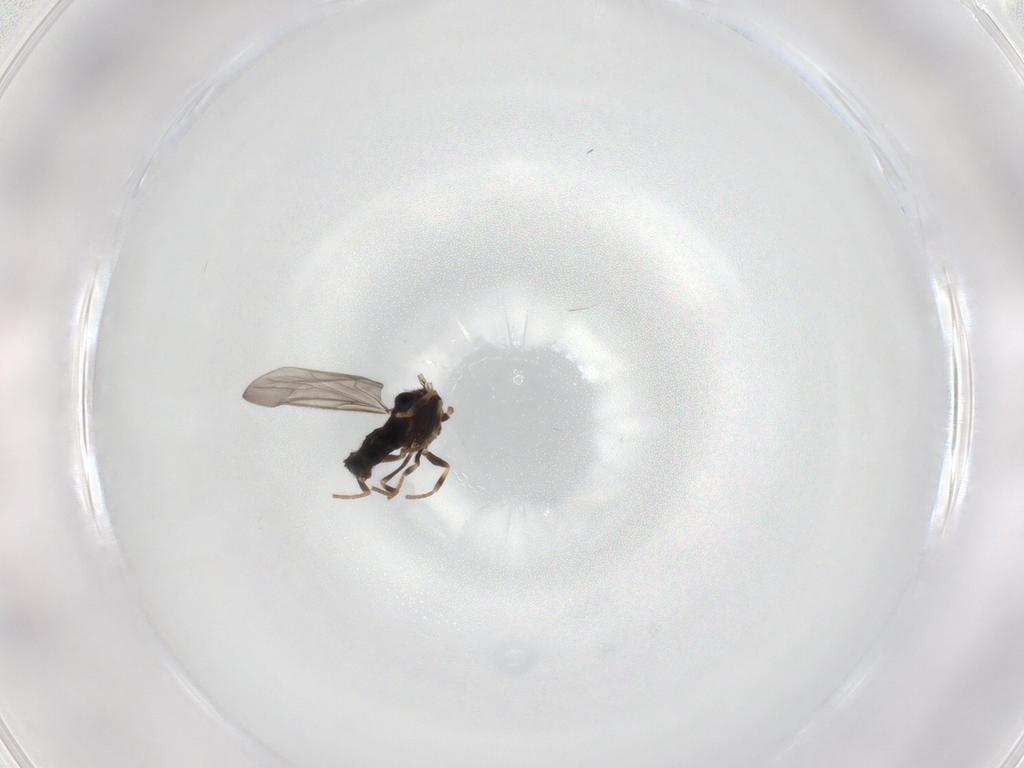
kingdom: Animalia
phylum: Arthropoda
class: Insecta
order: Diptera
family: Scatopsidae
